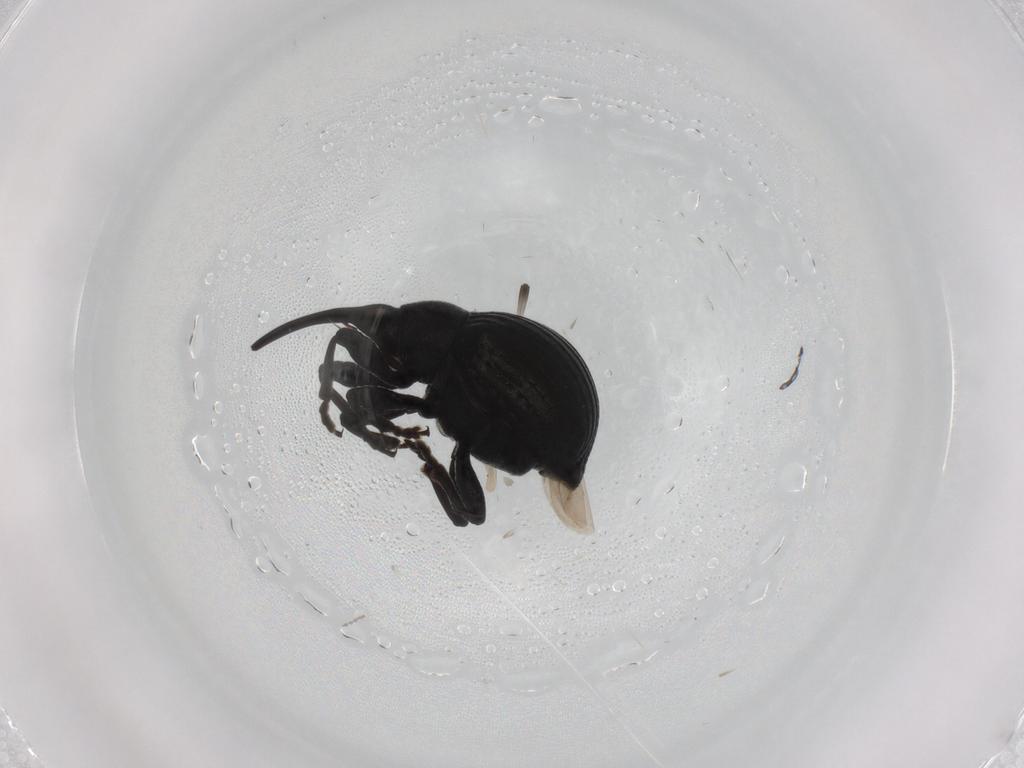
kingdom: Animalia
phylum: Arthropoda
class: Insecta
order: Coleoptera
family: Brentidae
